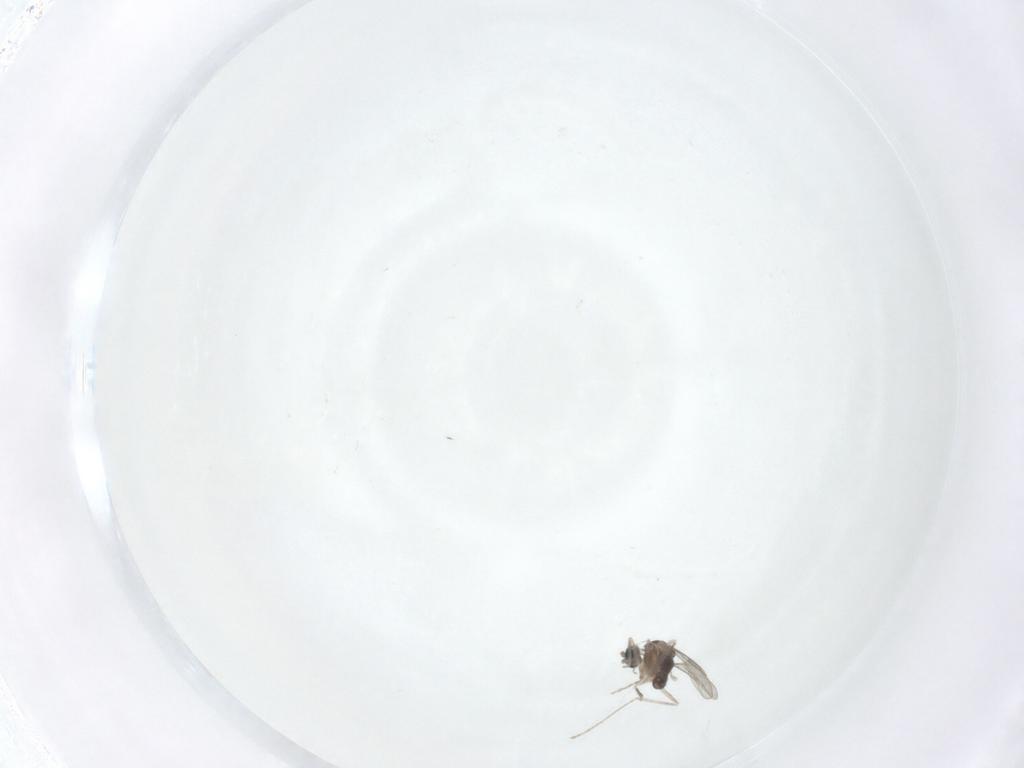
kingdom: Animalia
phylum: Arthropoda
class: Insecta
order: Diptera
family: Cecidomyiidae
